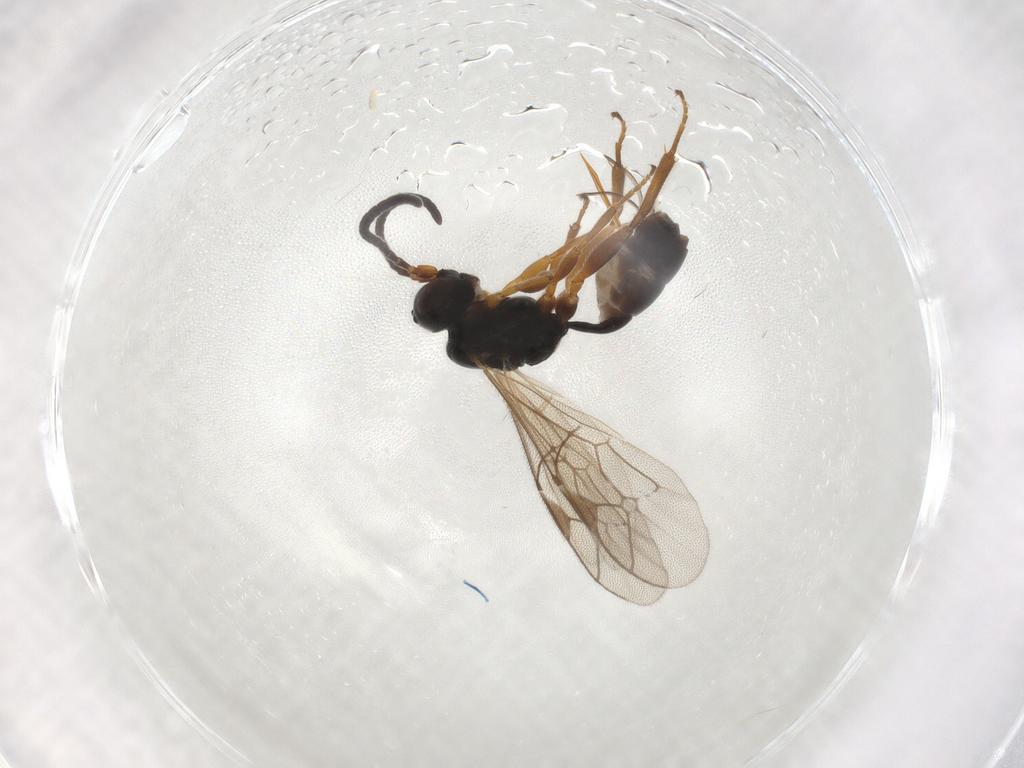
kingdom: Animalia
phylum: Arthropoda
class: Insecta
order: Hymenoptera
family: Ichneumonidae
